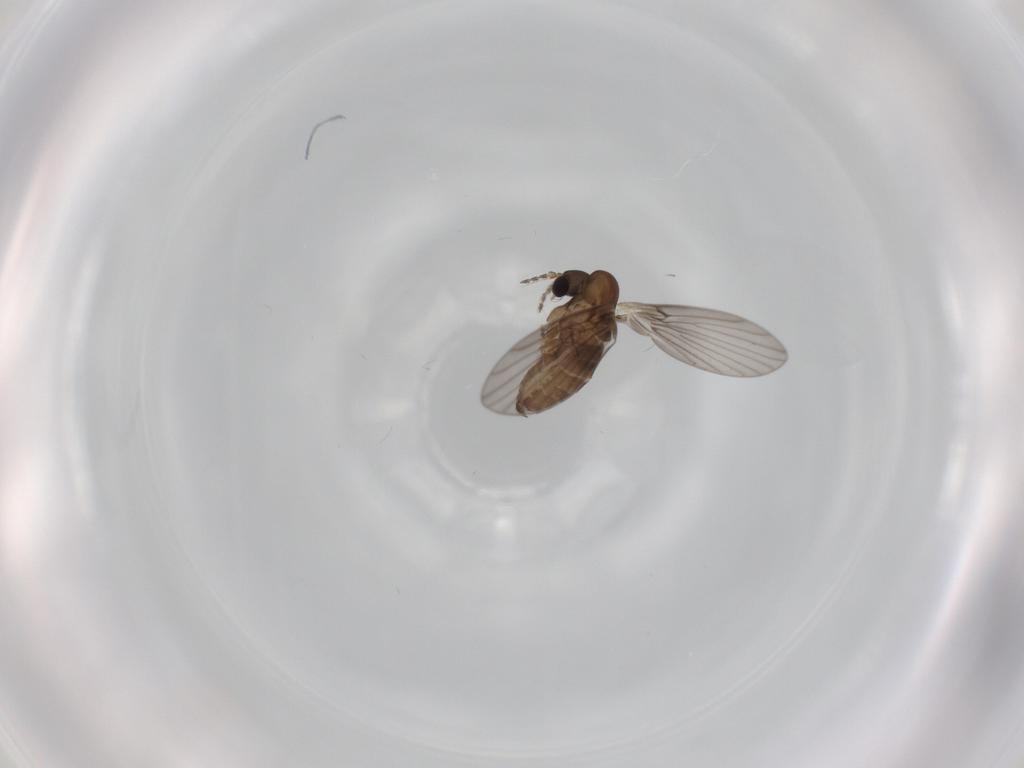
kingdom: Animalia
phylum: Arthropoda
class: Insecta
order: Diptera
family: Psychodidae
